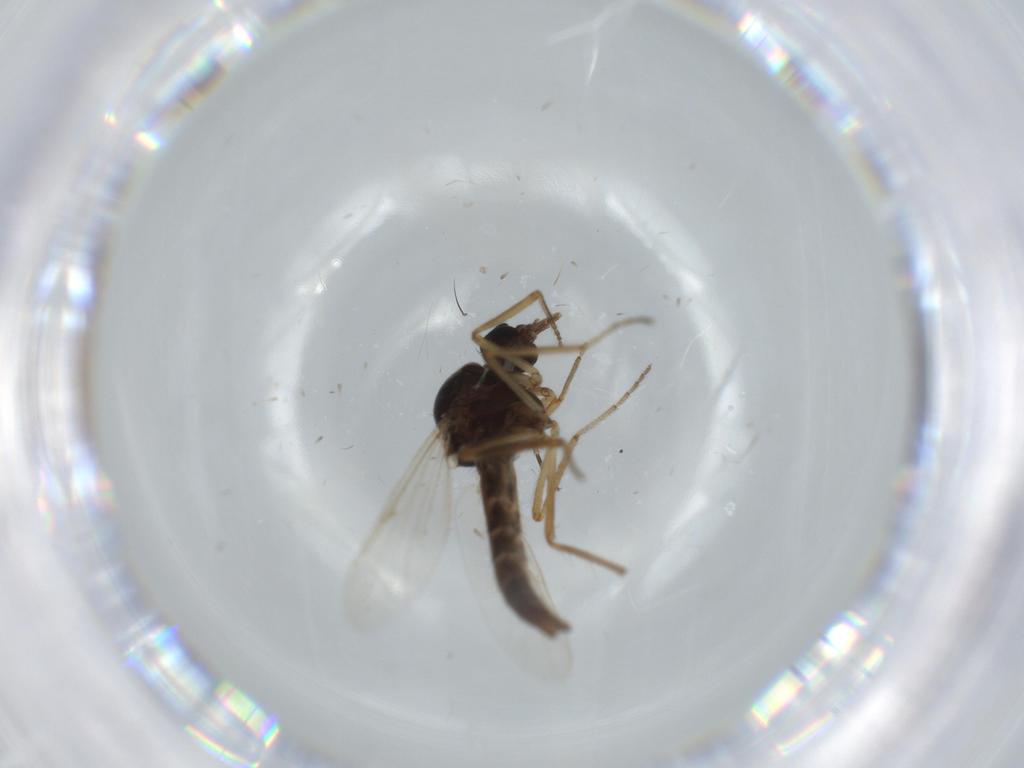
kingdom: Animalia
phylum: Arthropoda
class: Insecta
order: Diptera
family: Ceratopogonidae
